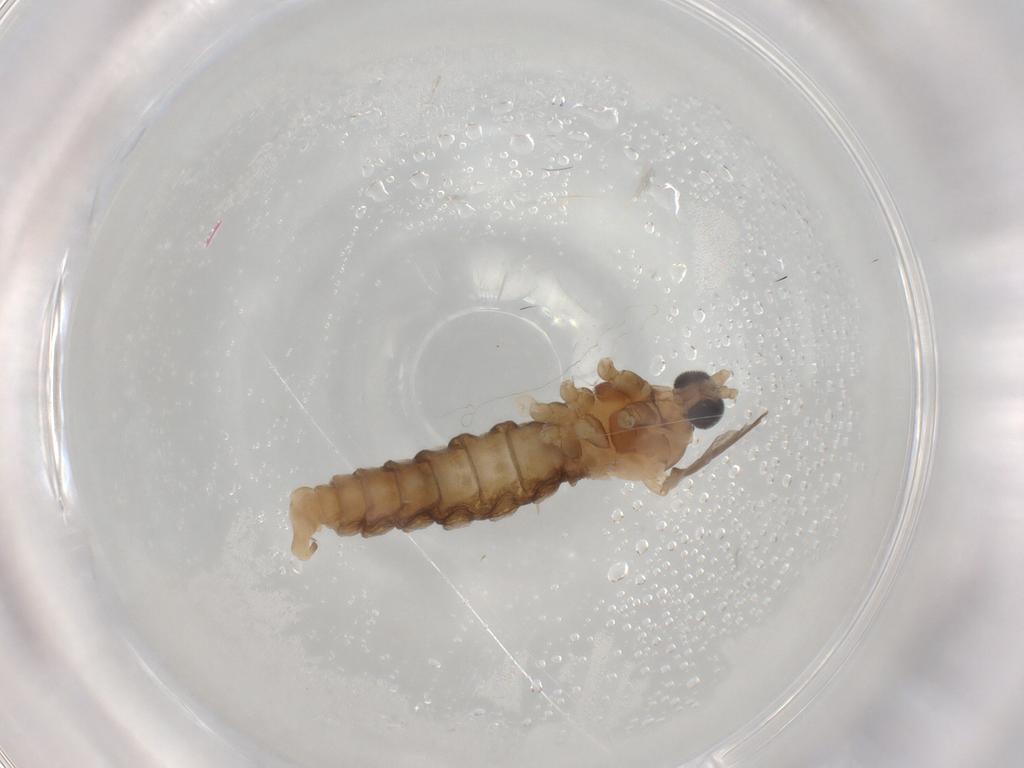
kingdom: Animalia
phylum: Arthropoda
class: Insecta
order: Diptera
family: Cecidomyiidae
